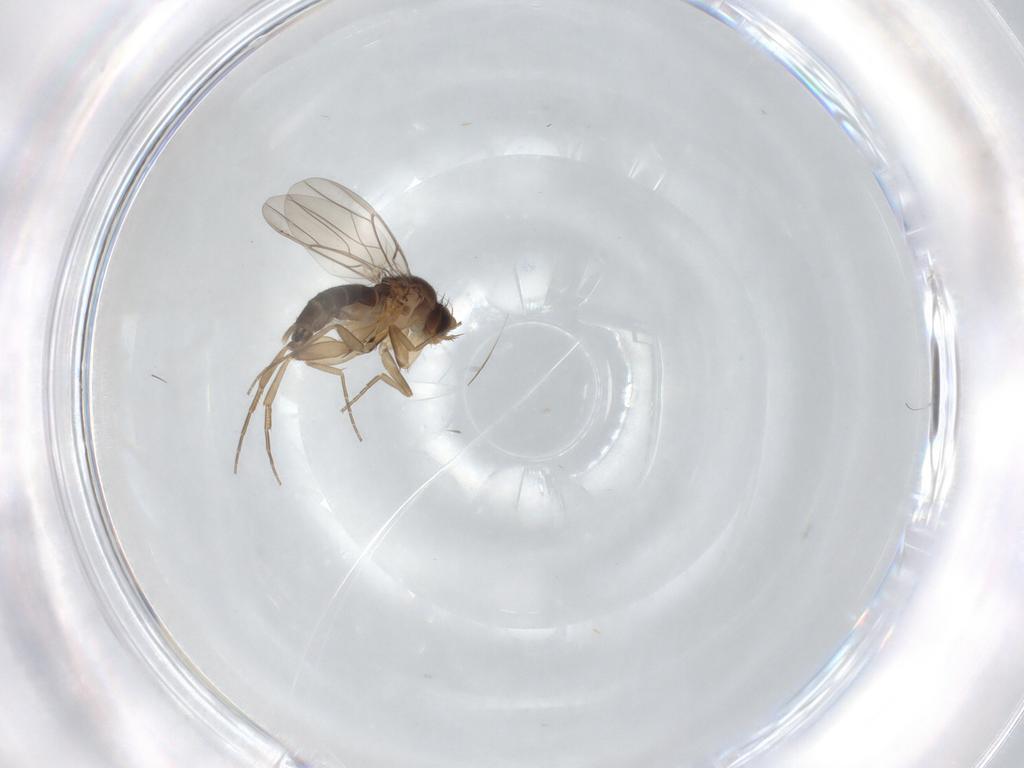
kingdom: Animalia
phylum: Arthropoda
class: Insecta
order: Diptera
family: Phoridae
